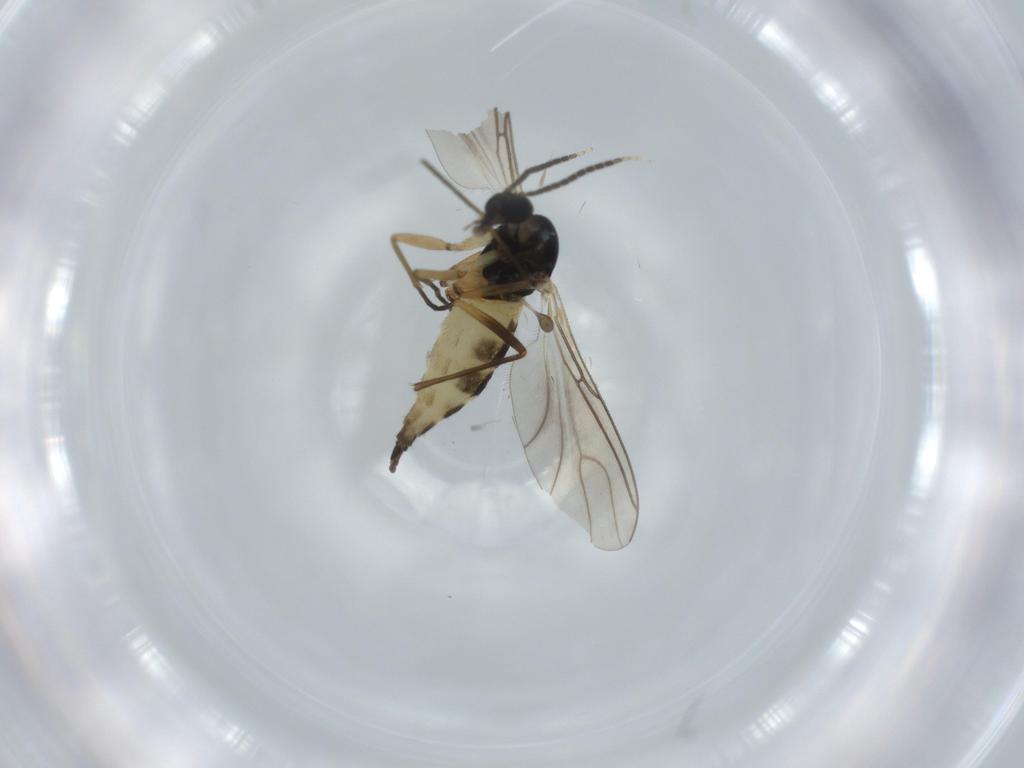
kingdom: Animalia
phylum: Arthropoda
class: Insecta
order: Diptera
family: Sciaridae
